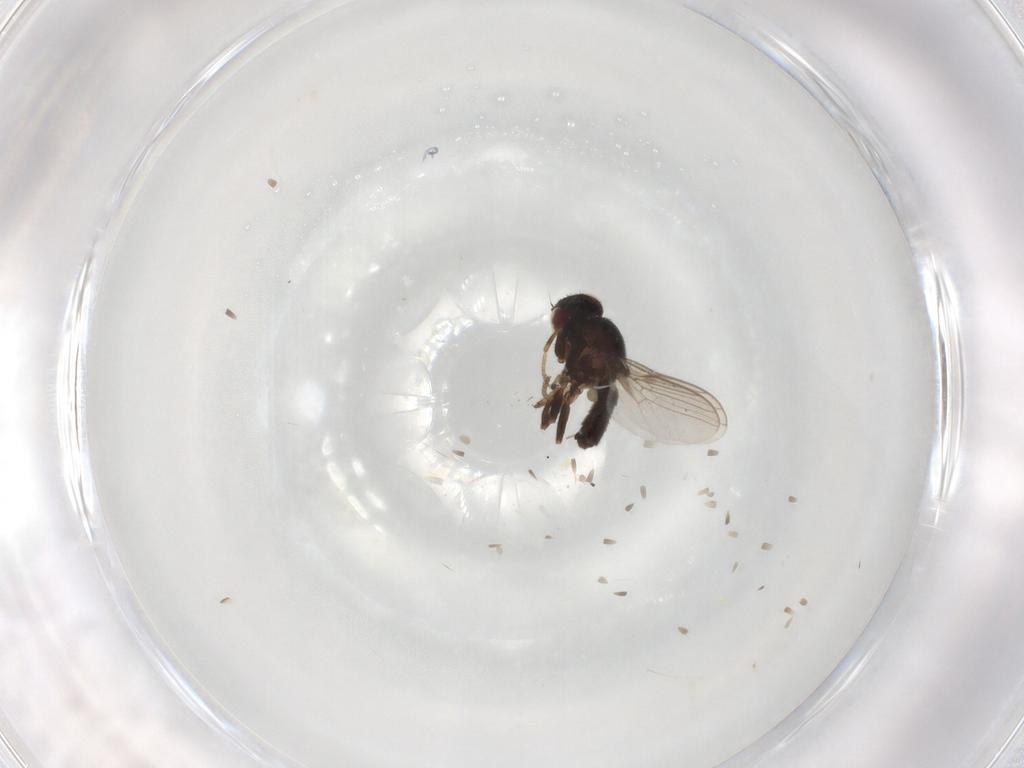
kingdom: Animalia
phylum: Arthropoda
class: Insecta
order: Diptera
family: Chloropidae
